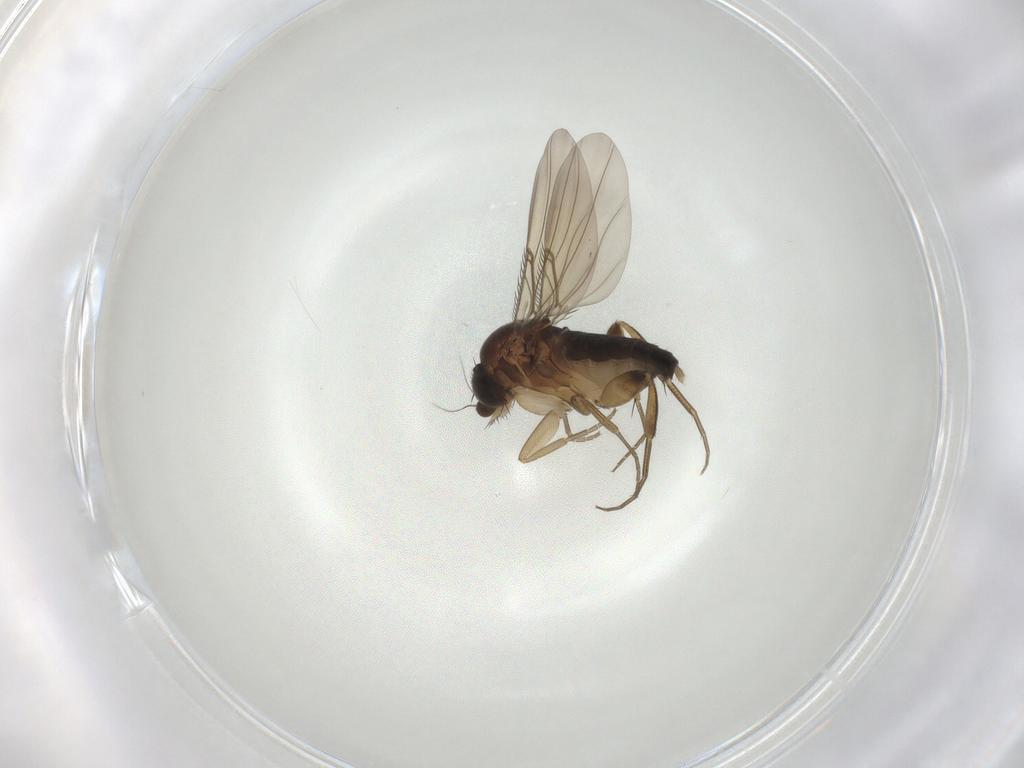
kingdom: Animalia
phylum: Arthropoda
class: Insecta
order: Diptera
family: Phoridae
